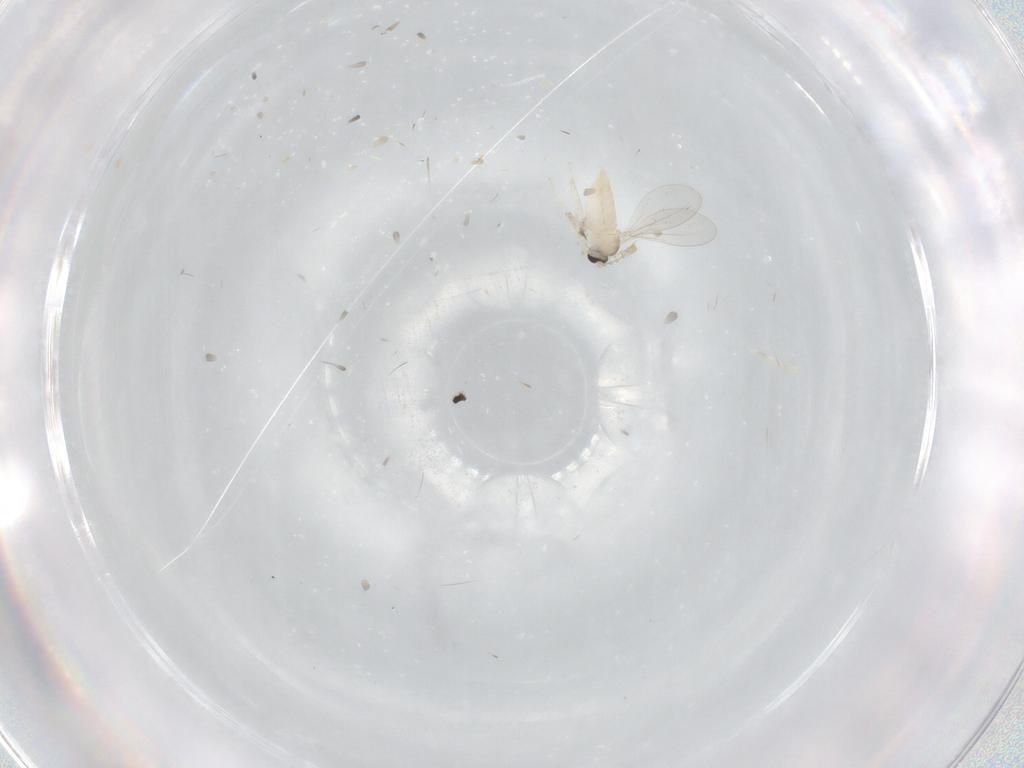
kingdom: Animalia
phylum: Arthropoda
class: Insecta
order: Diptera
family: Cecidomyiidae
